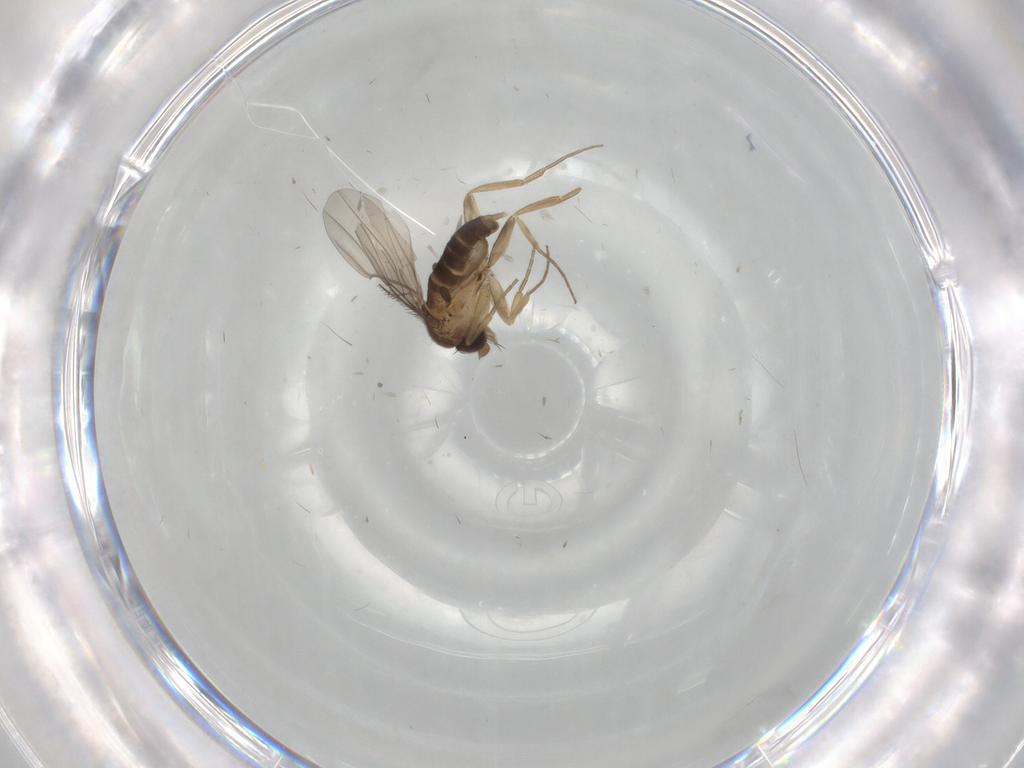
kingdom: Animalia
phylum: Arthropoda
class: Insecta
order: Diptera
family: Phoridae
